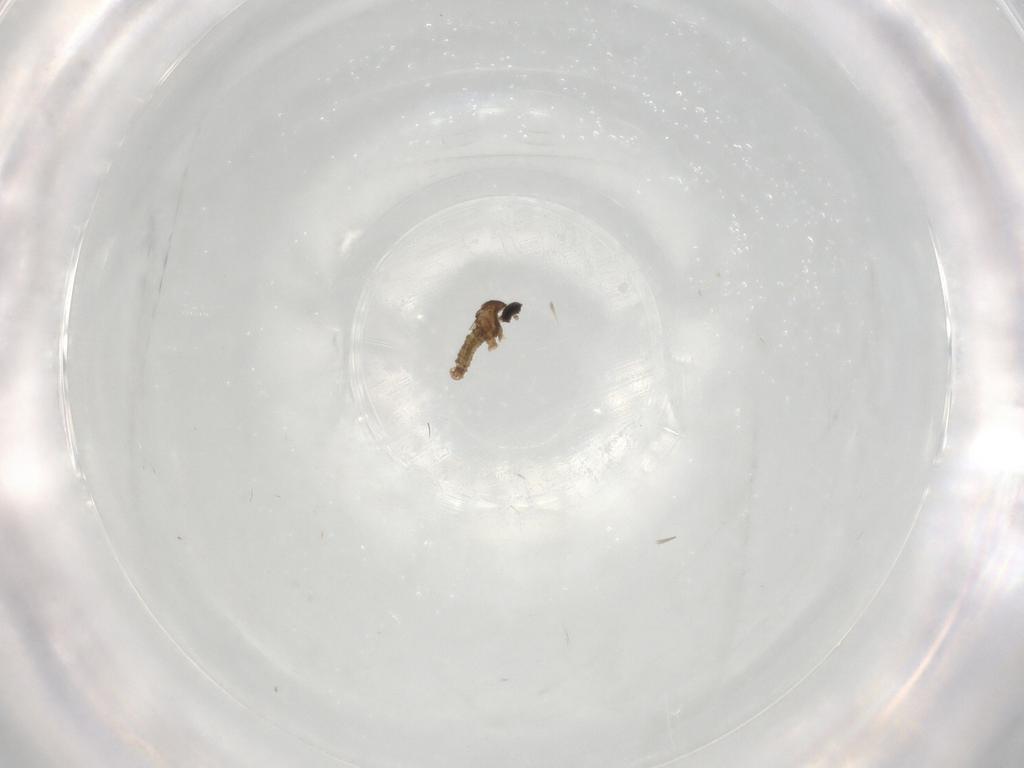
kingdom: Animalia
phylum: Arthropoda
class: Insecta
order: Diptera
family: Cecidomyiidae
